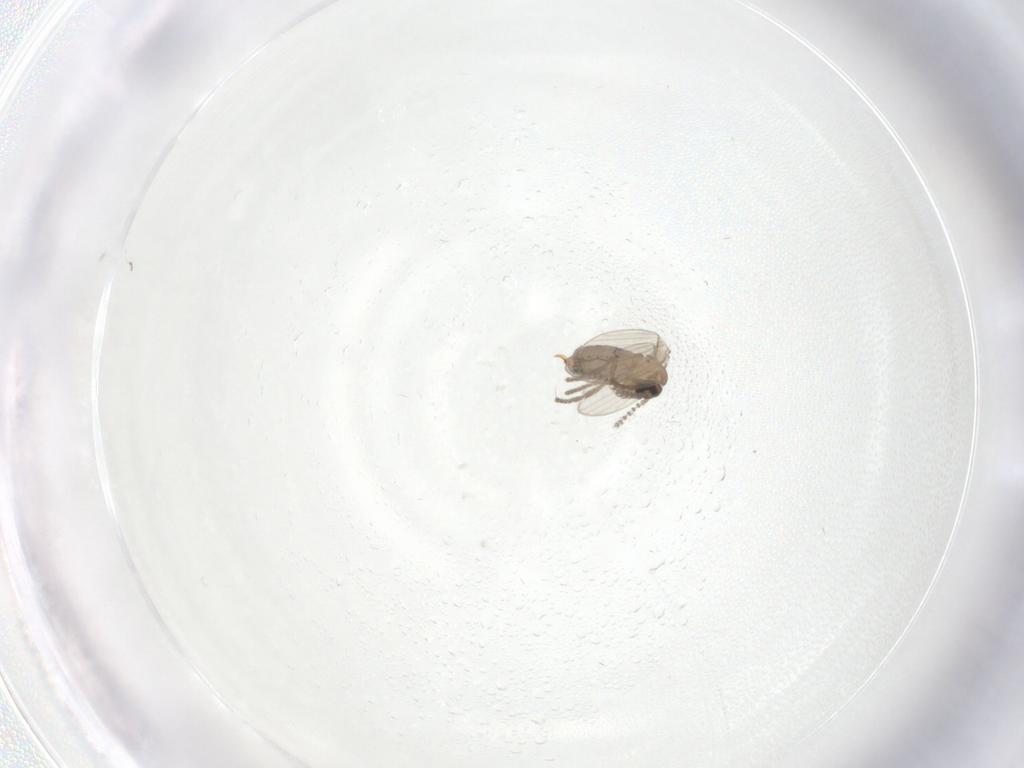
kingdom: Animalia
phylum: Arthropoda
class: Insecta
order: Diptera
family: Psychodidae
